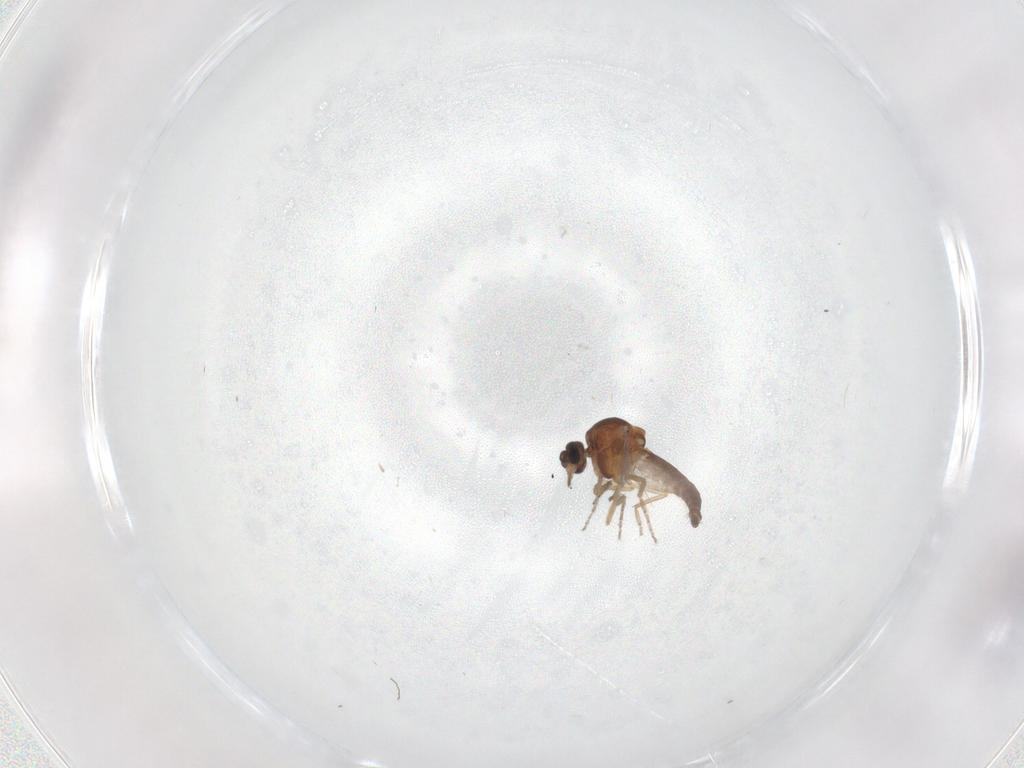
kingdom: Animalia
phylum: Arthropoda
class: Insecta
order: Diptera
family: Ceratopogonidae
